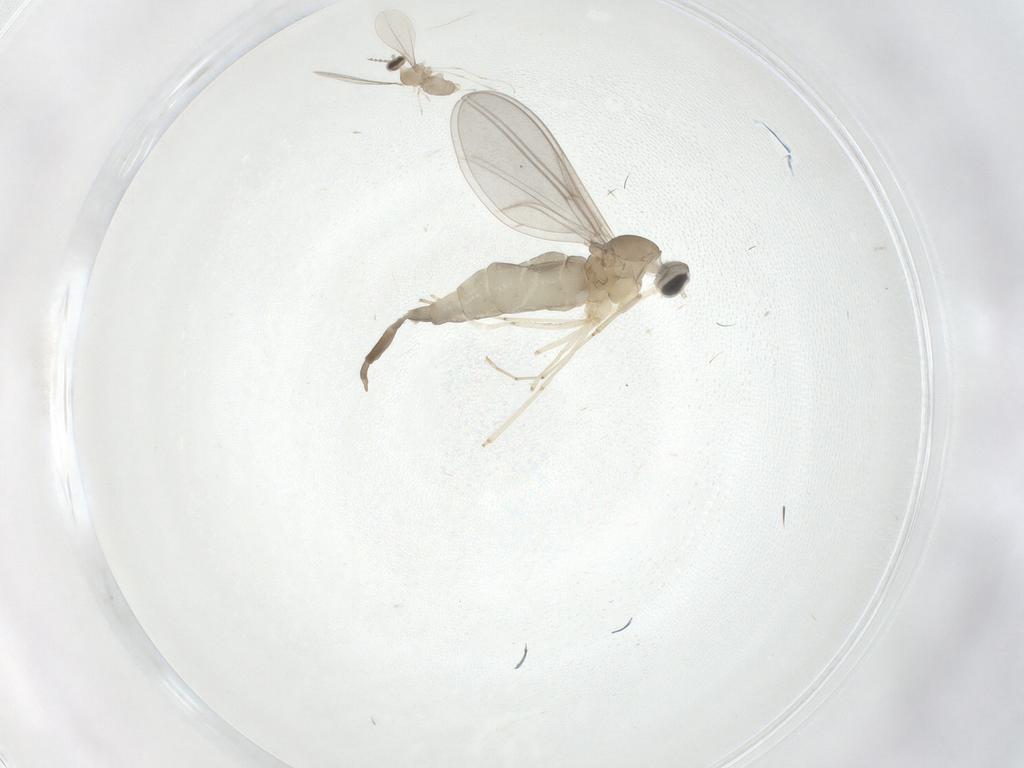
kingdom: Animalia
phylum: Arthropoda
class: Insecta
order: Diptera
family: Cecidomyiidae
